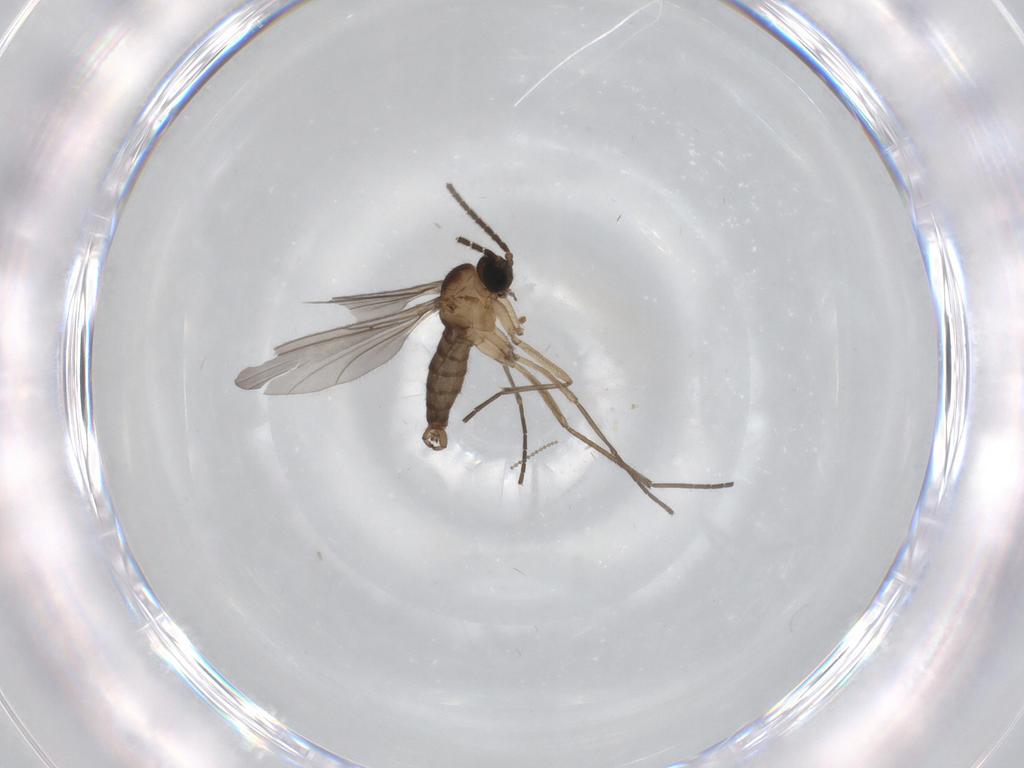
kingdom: Animalia
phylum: Arthropoda
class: Insecta
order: Diptera
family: Sciaridae
